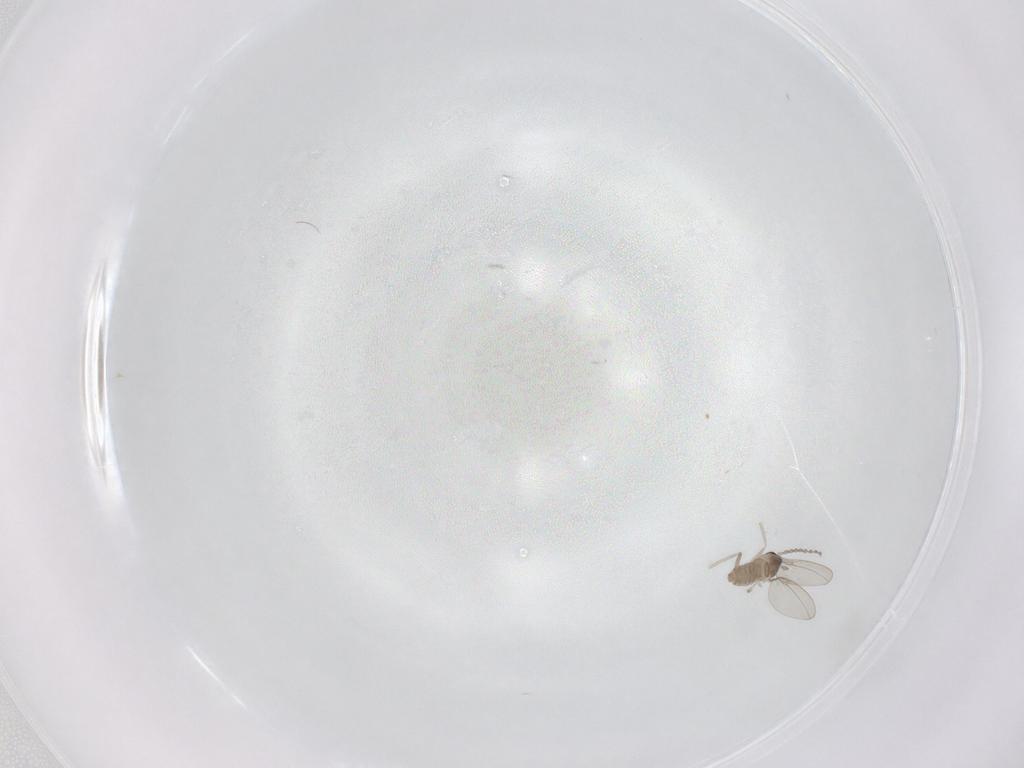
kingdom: Animalia
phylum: Arthropoda
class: Insecta
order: Diptera
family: Cecidomyiidae
